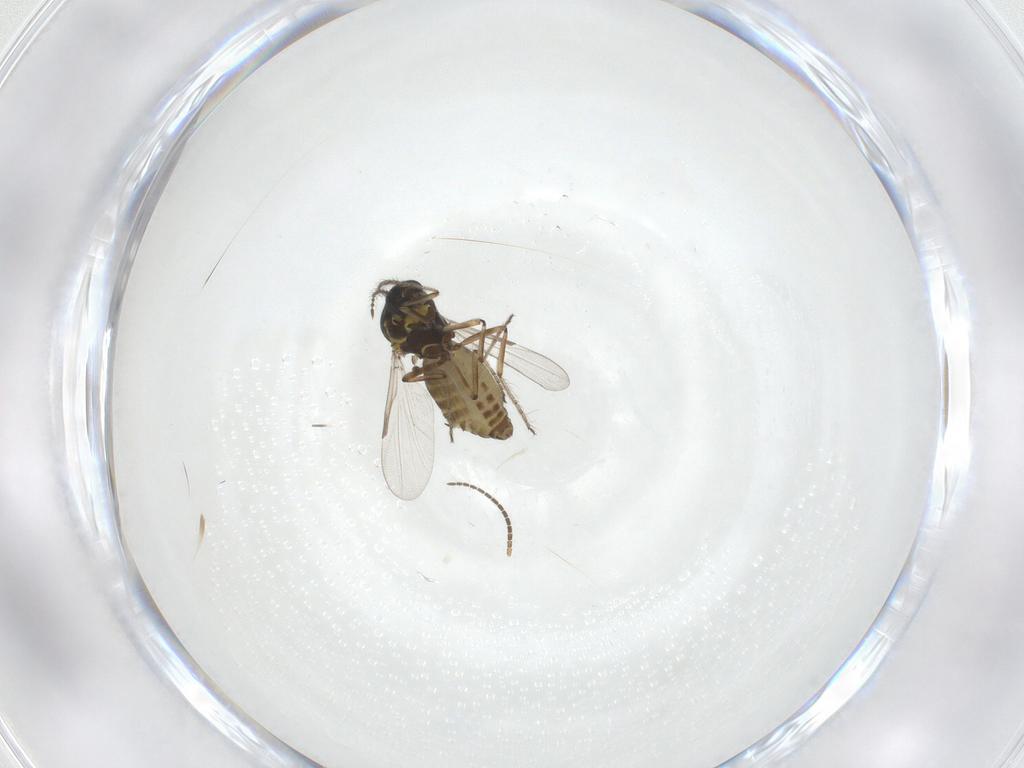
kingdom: Animalia
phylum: Arthropoda
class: Insecta
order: Diptera
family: Sciaridae
